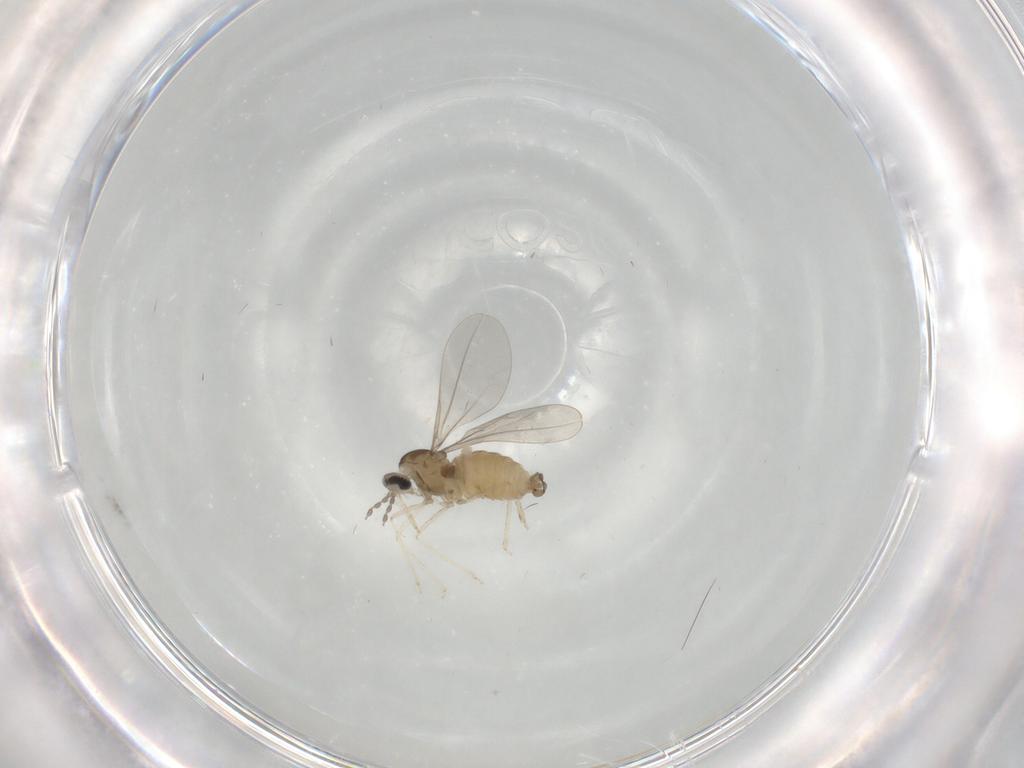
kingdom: Animalia
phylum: Arthropoda
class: Insecta
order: Diptera
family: Cecidomyiidae
